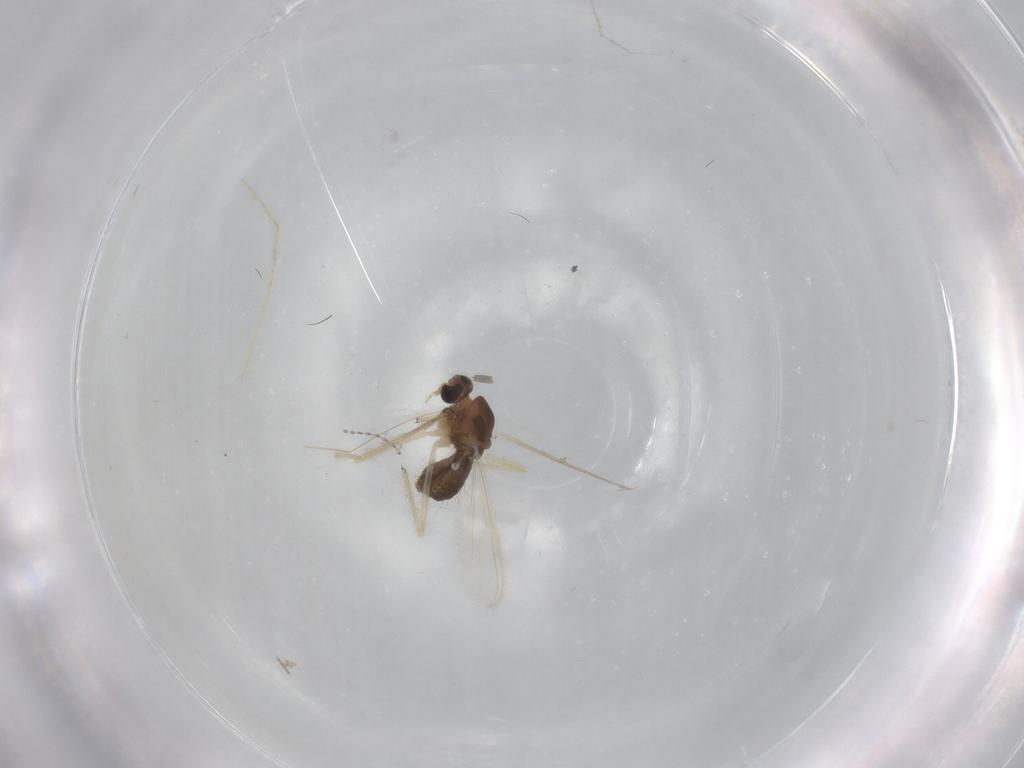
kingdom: Animalia
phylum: Arthropoda
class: Insecta
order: Diptera
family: Chironomidae
